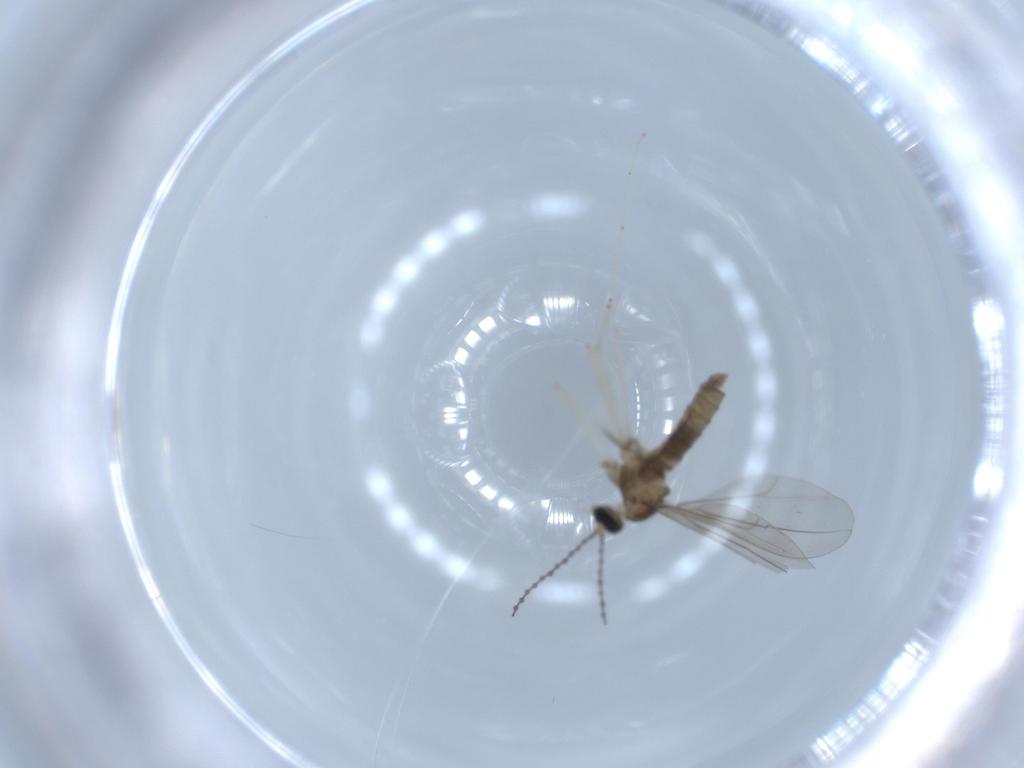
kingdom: Animalia
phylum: Arthropoda
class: Insecta
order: Diptera
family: Cecidomyiidae
